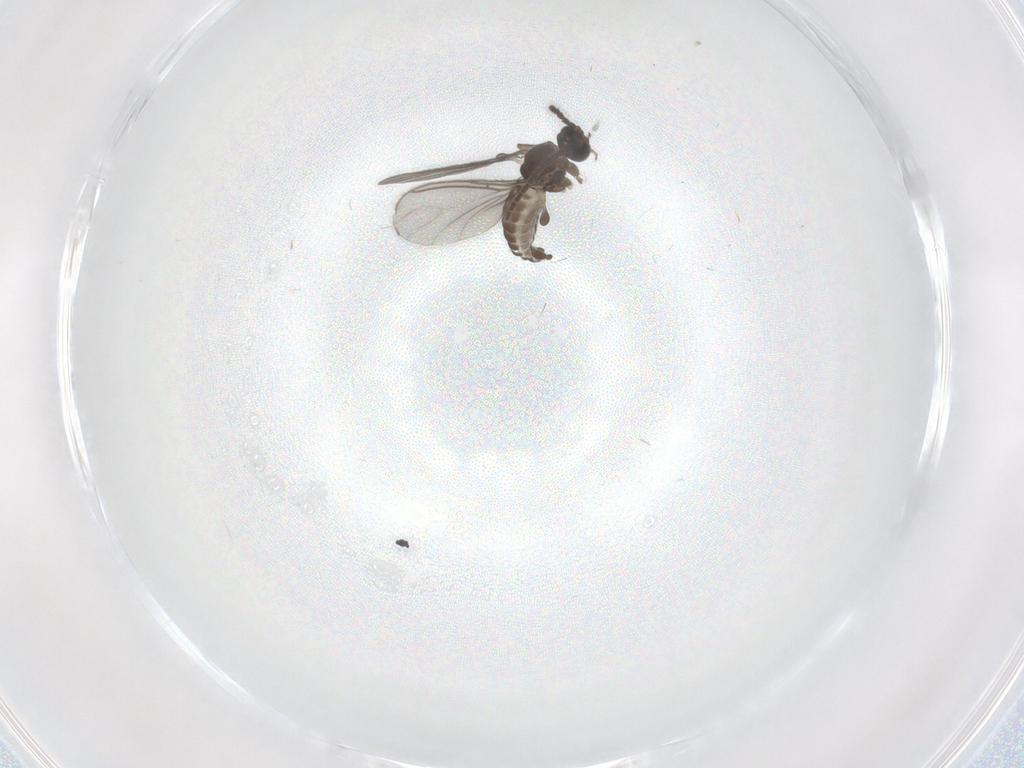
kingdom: Animalia
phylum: Arthropoda
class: Insecta
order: Diptera
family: Sciaridae
